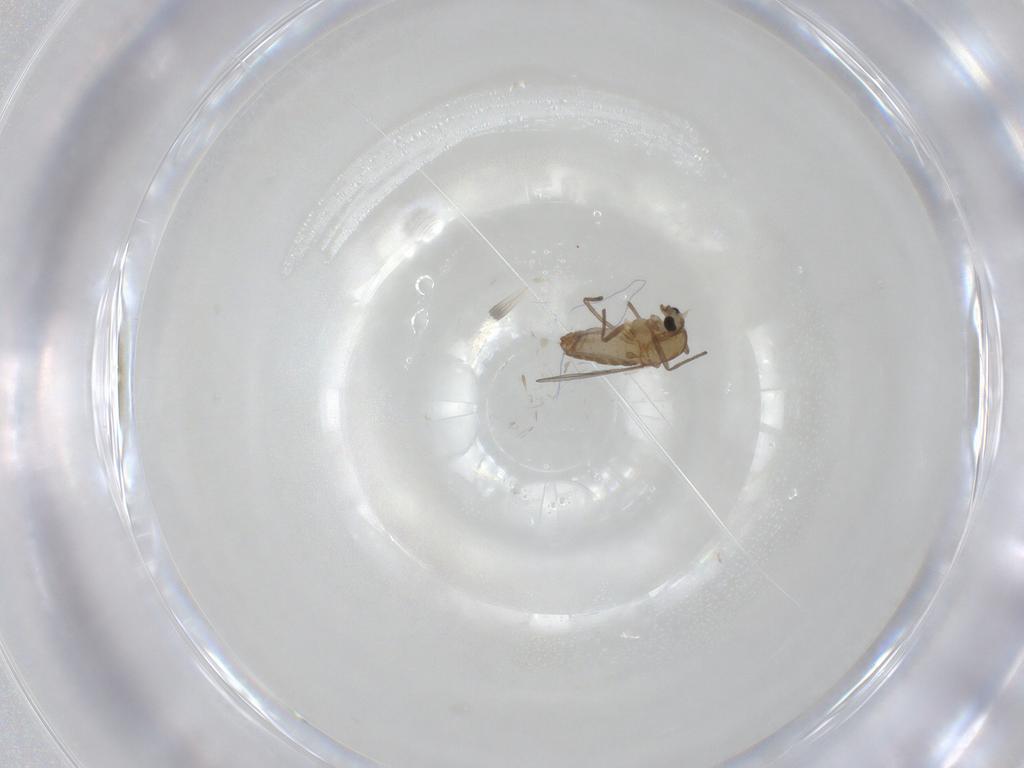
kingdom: Animalia
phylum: Arthropoda
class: Insecta
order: Diptera
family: Chironomidae
